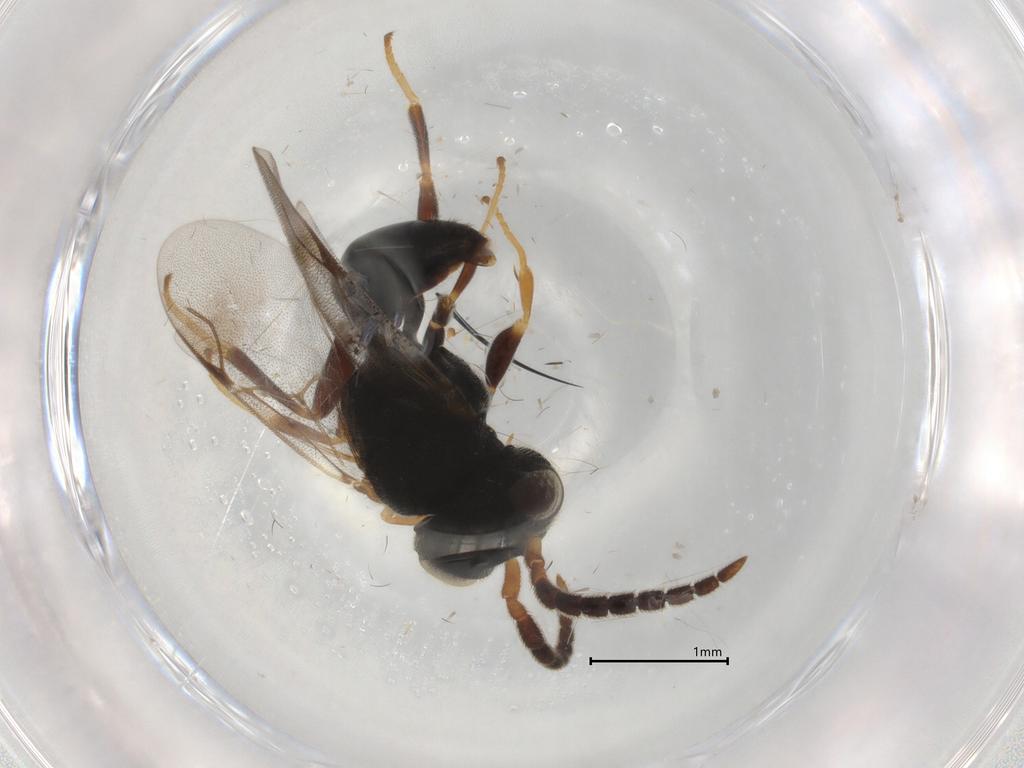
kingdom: Animalia
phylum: Arthropoda
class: Insecta
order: Hymenoptera
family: Dryinidae
